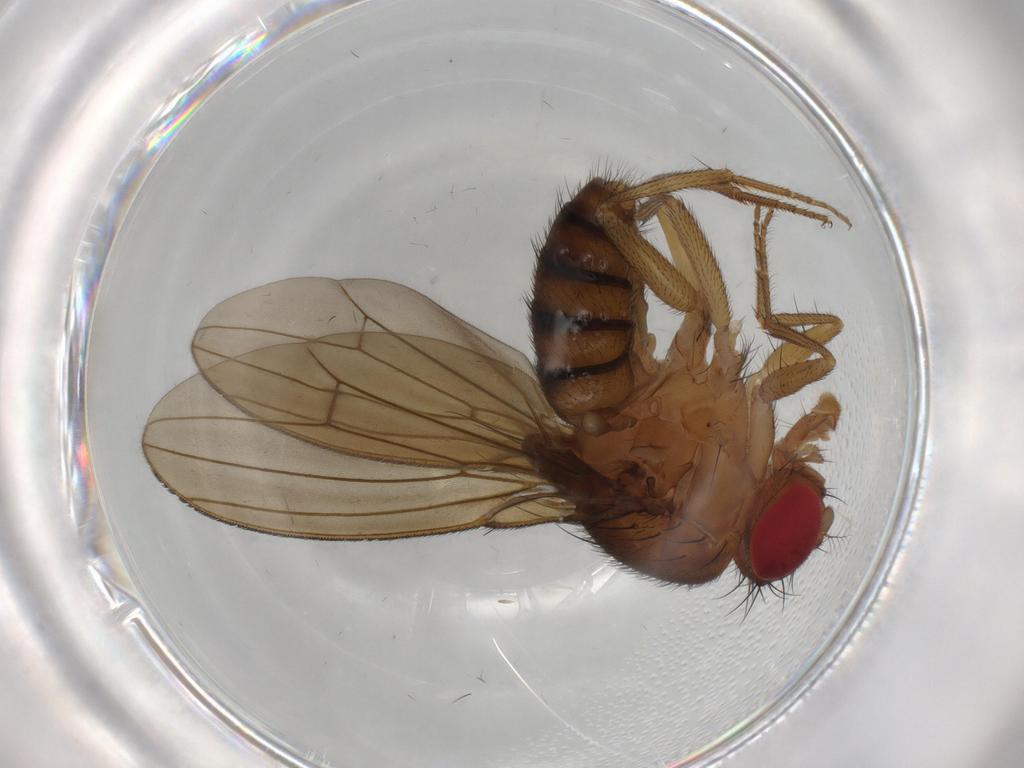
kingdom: Animalia
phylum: Arthropoda
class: Insecta
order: Diptera
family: Drosophilidae
